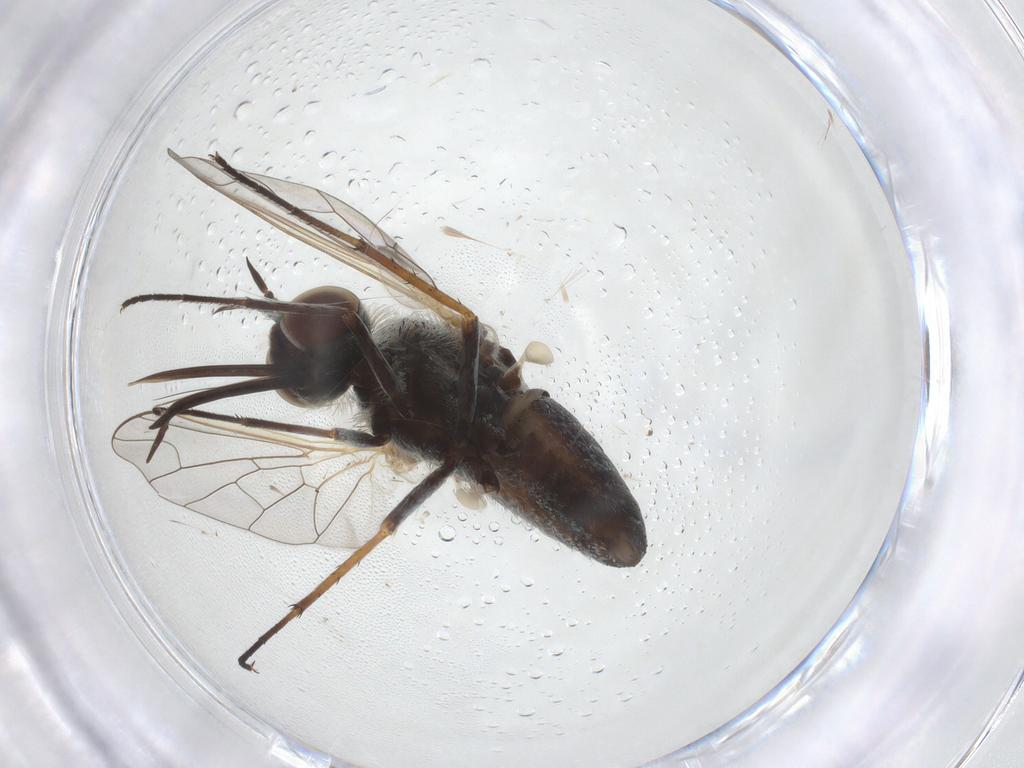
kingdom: Animalia
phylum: Arthropoda
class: Insecta
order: Diptera
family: Bombyliidae
